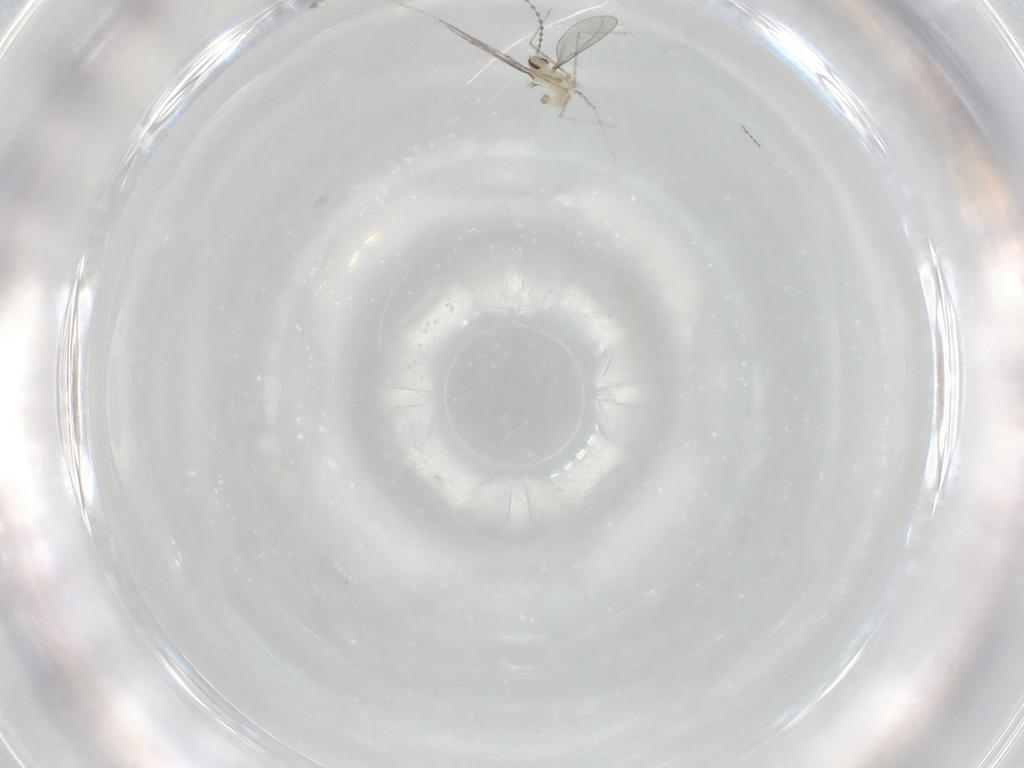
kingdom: Animalia
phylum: Arthropoda
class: Insecta
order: Diptera
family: Cecidomyiidae
